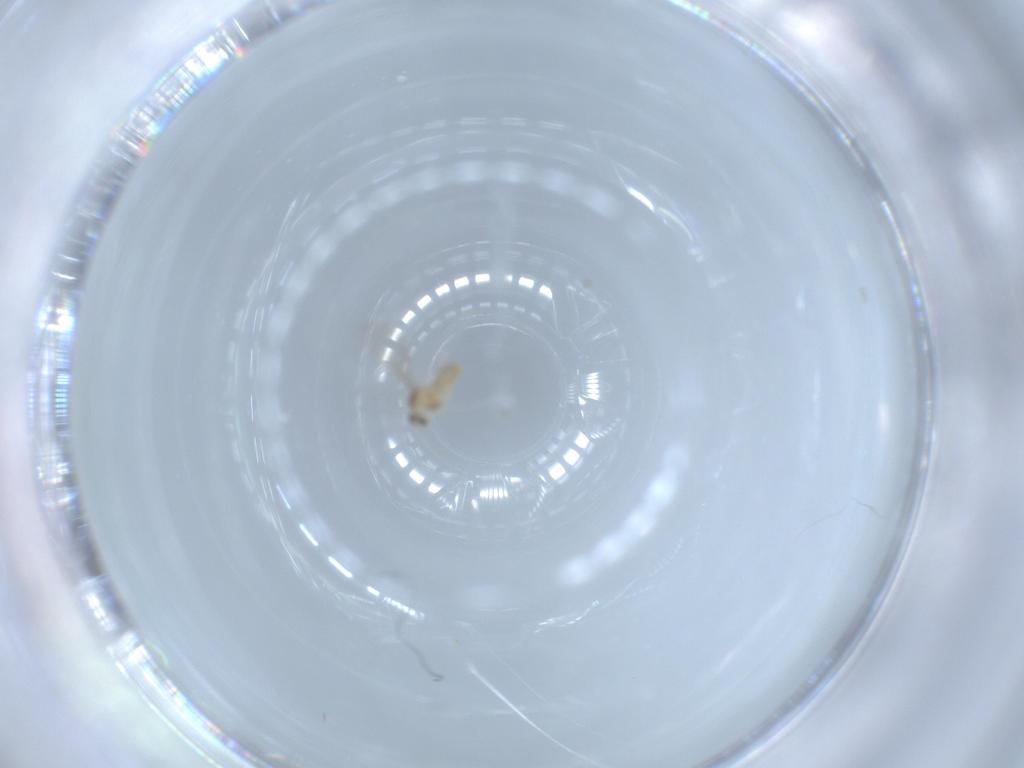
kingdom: Animalia
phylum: Arthropoda
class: Insecta
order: Diptera
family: Cecidomyiidae
